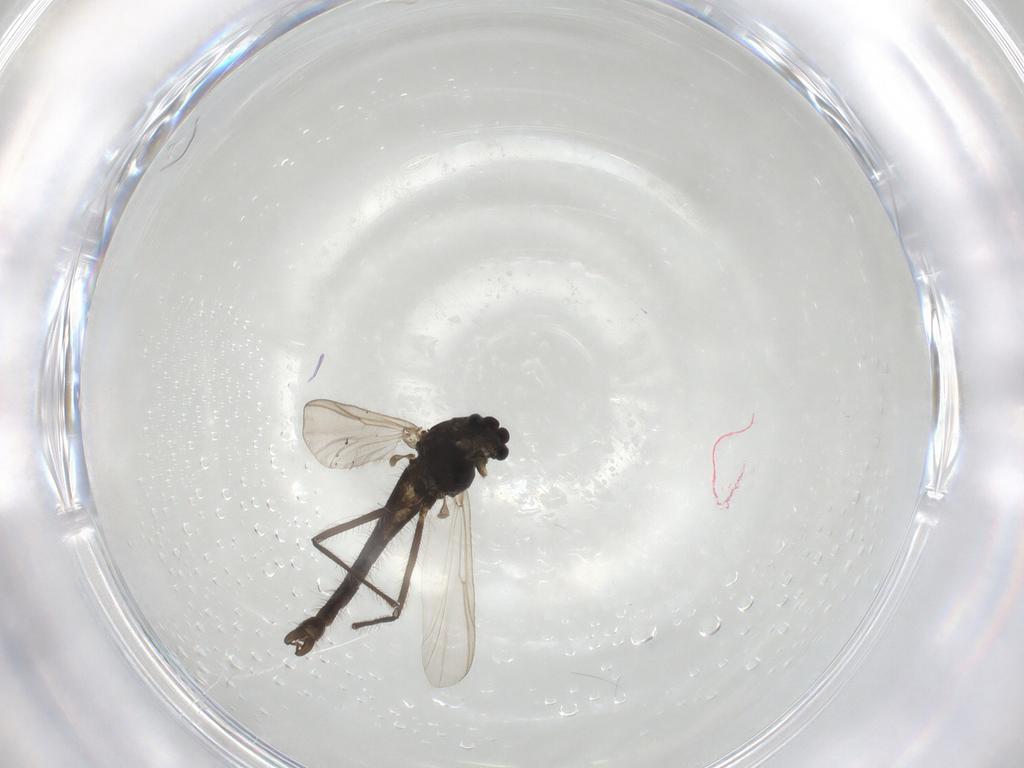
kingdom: Animalia
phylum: Arthropoda
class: Insecta
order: Diptera
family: Chironomidae
